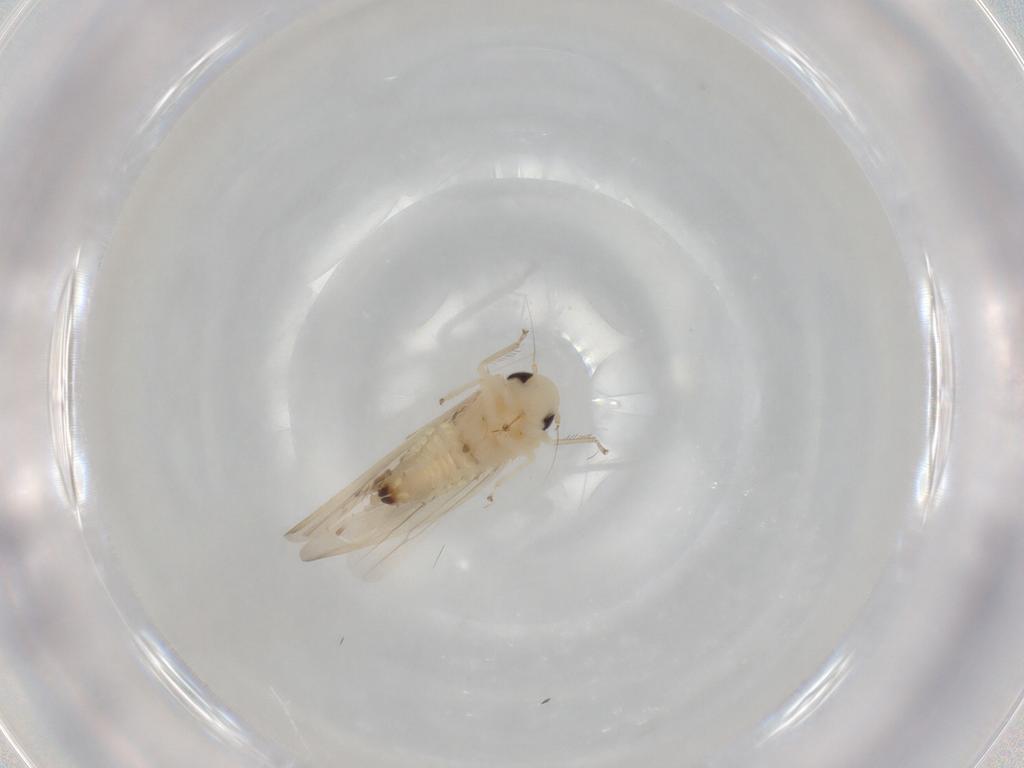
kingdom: Animalia
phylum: Arthropoda
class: Insecta
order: Hemiptera
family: Cicadellidae
